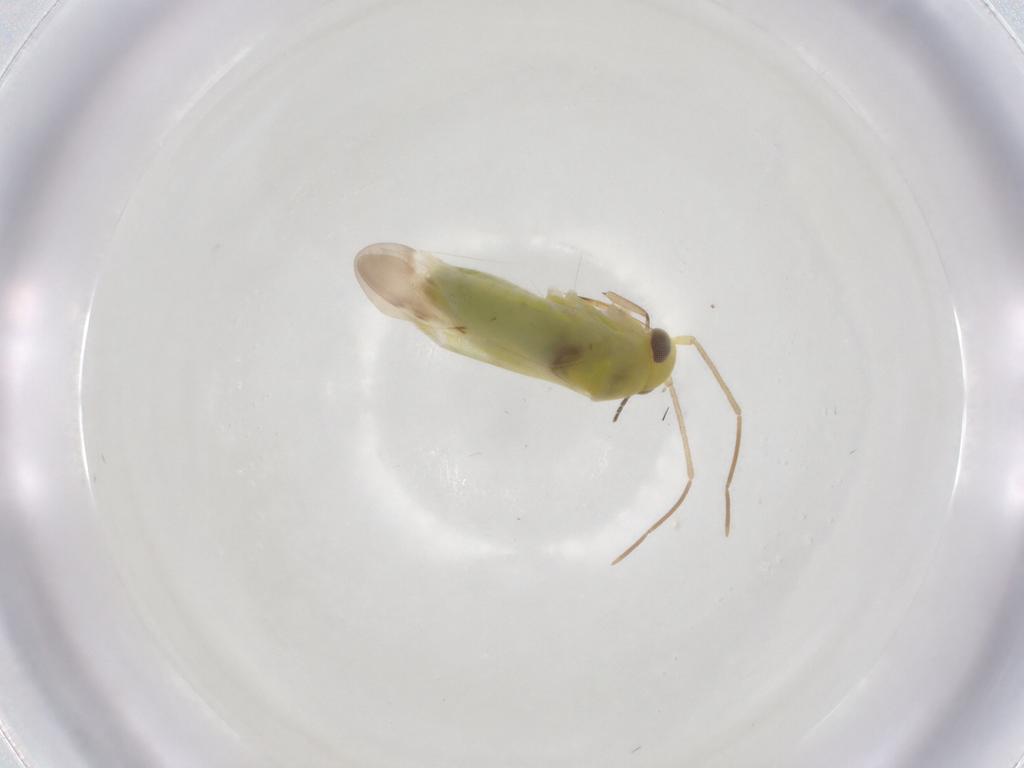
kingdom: Animalia
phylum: Arthropoda
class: Insecta
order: Hemiptera
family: Miridae
